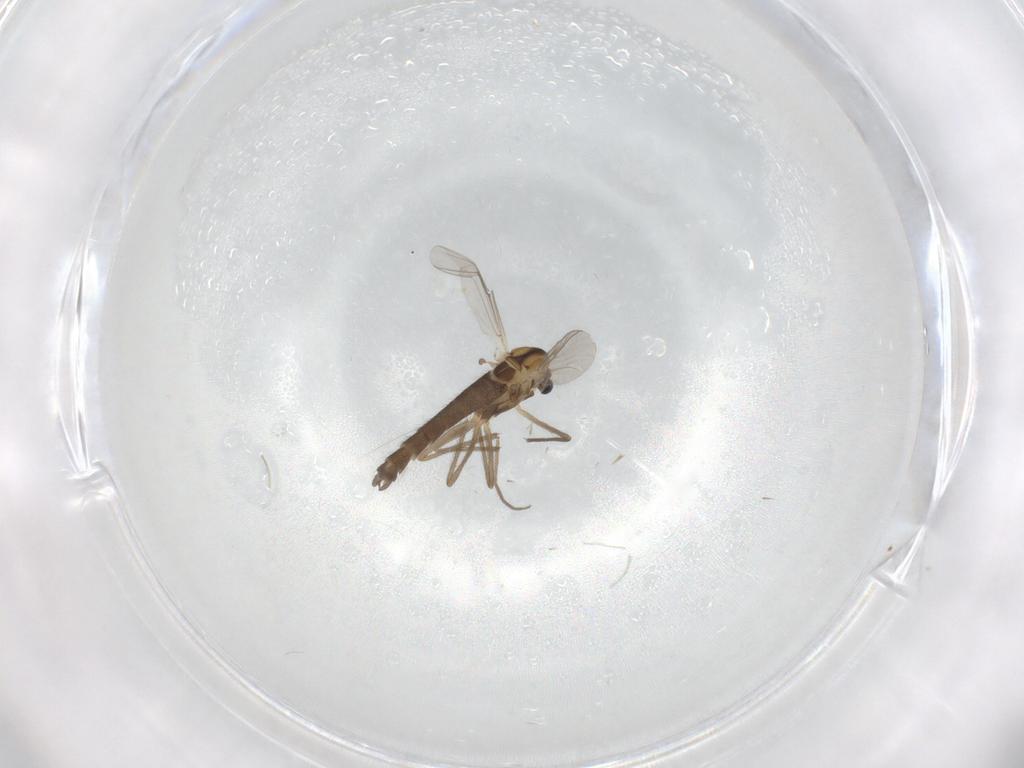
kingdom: Animalia
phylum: Arthropoda
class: Insecta
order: Diptera
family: Chironomidae
